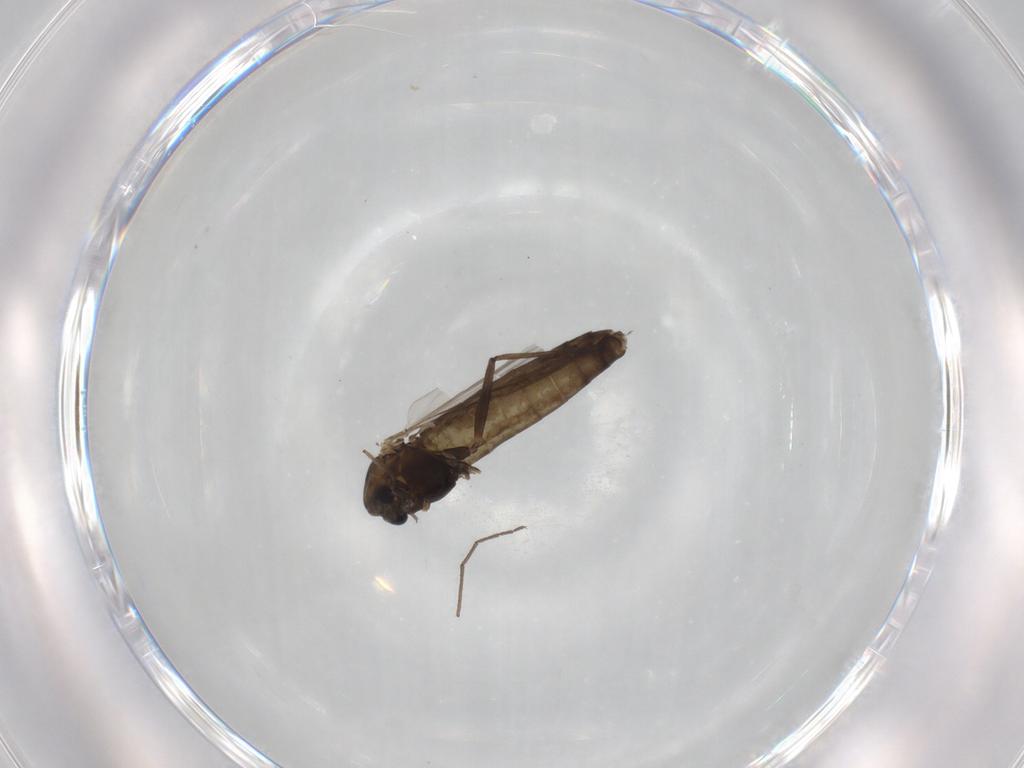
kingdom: Animalia
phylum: Arthropoda
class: Insecta
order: Diptera
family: Chironomidae
